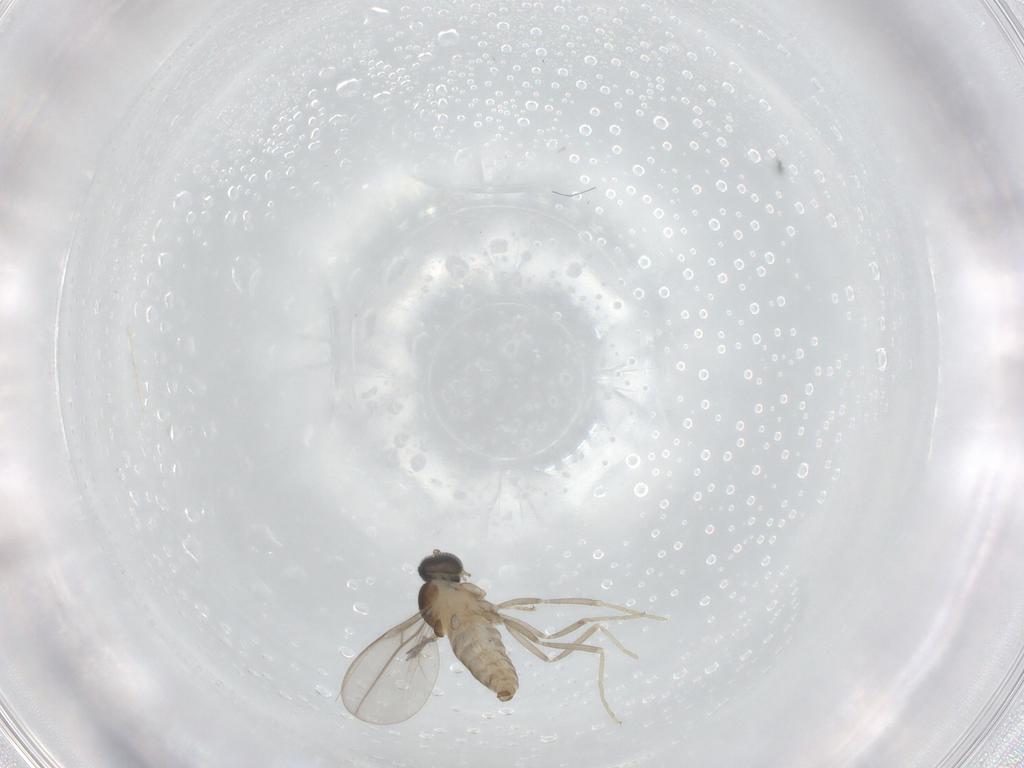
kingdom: Animalia
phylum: Arthropoda
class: Insecta
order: Diptera
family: Cecidomyiidae
